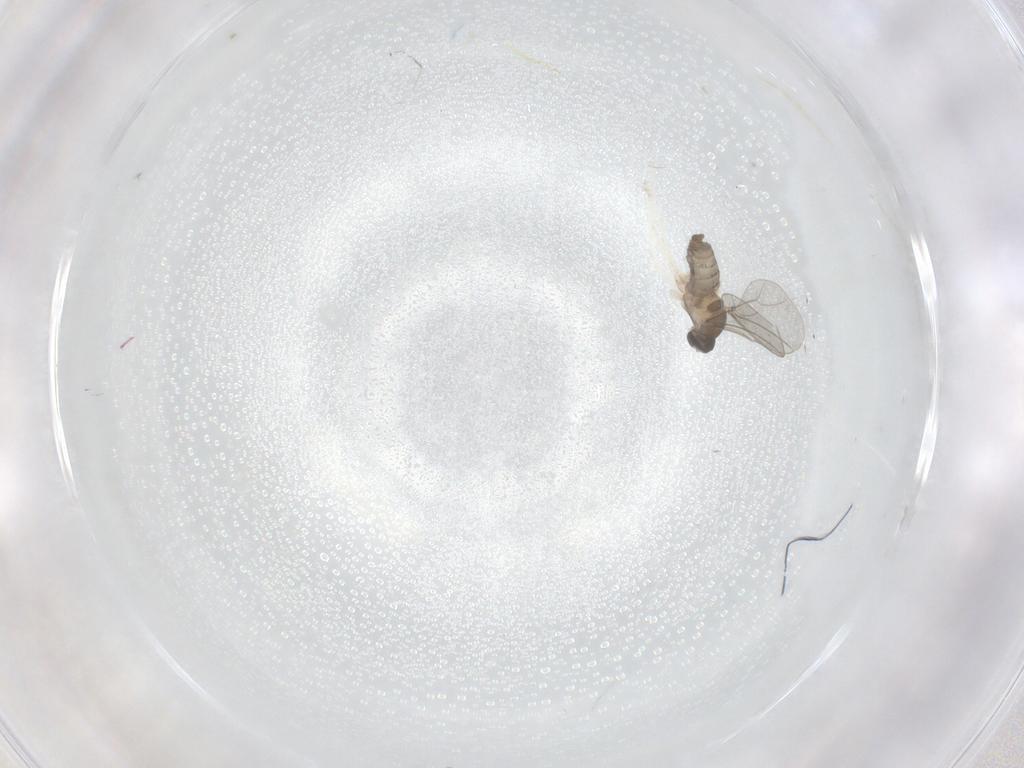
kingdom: Animalia
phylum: Arthropoda
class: Insecta
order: Diptera
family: Cecidomyiidae
